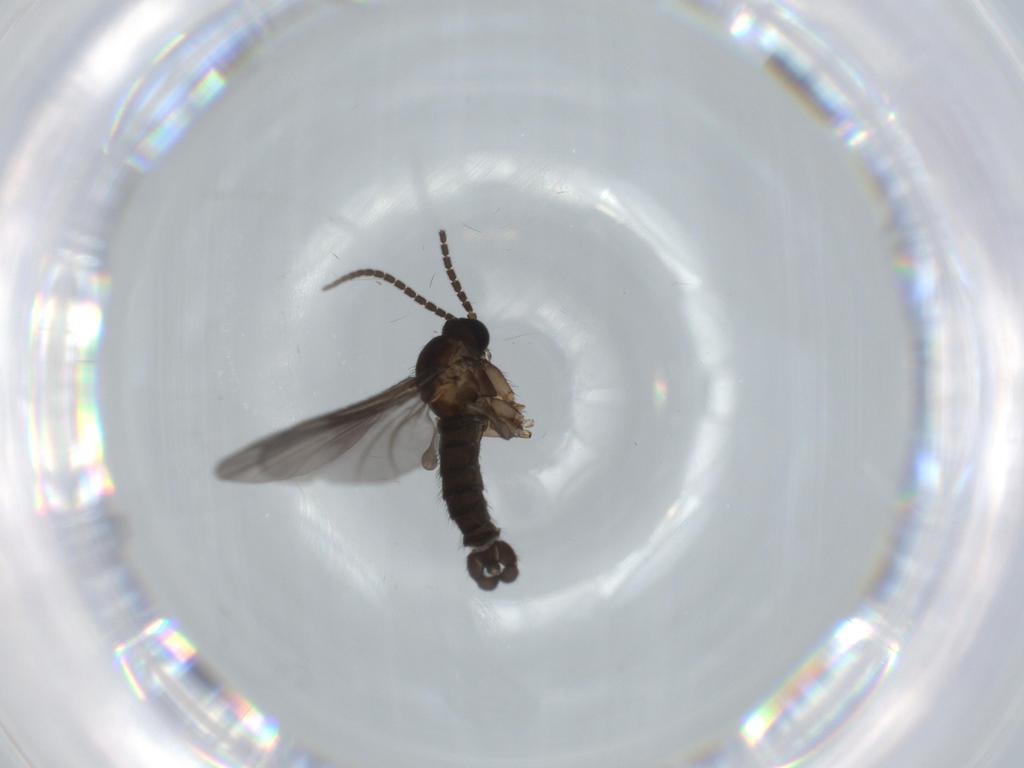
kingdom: Animalia
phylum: Arthropoda
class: Insecta
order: Diptera
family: Sciaridae
